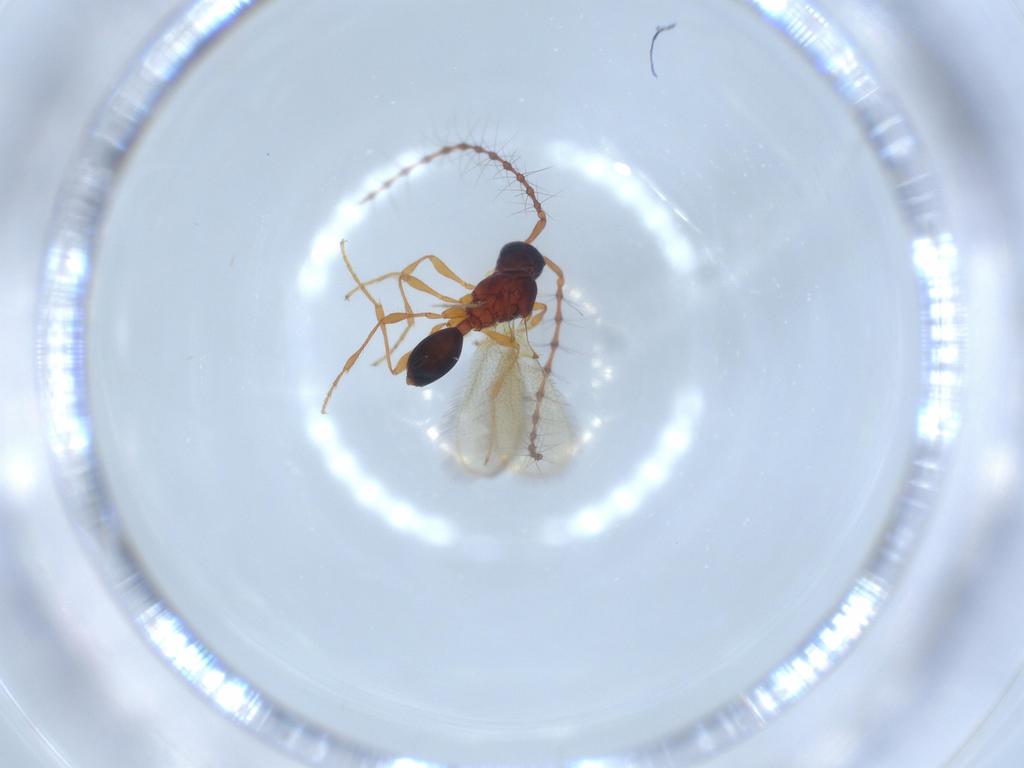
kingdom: Animalia
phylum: Arthropoda
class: Insecta
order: Hymenoptera
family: Diapriidae
